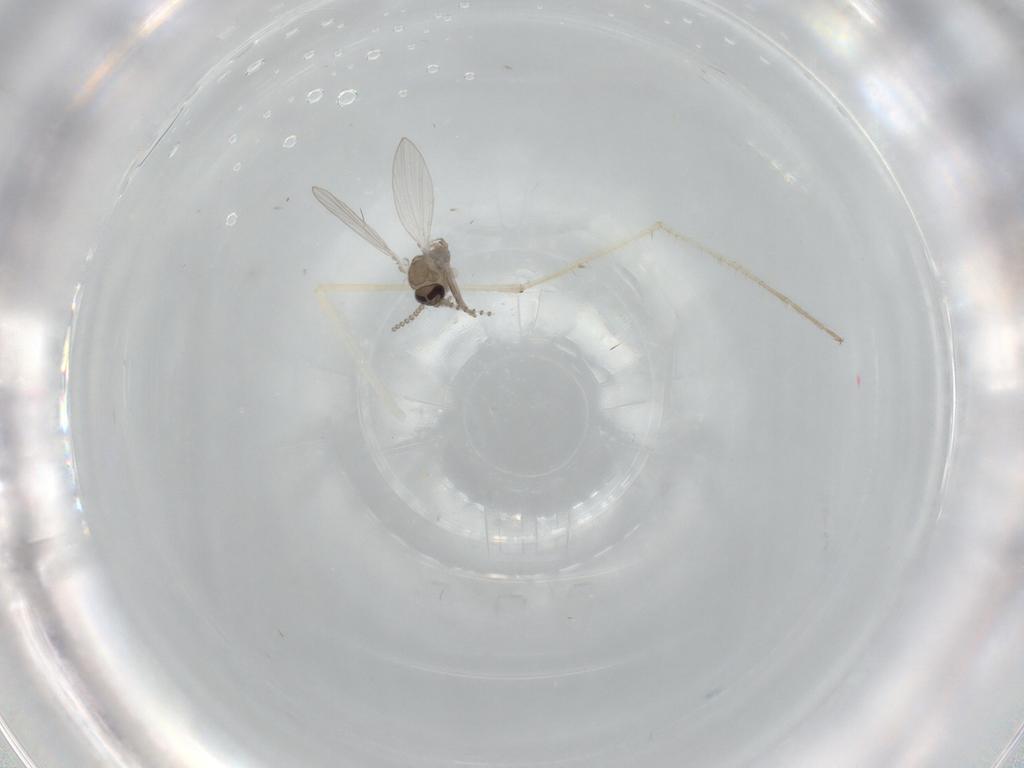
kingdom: Animalia
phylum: Arthropoda
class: Insecta
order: Diptera
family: Chironomidae
